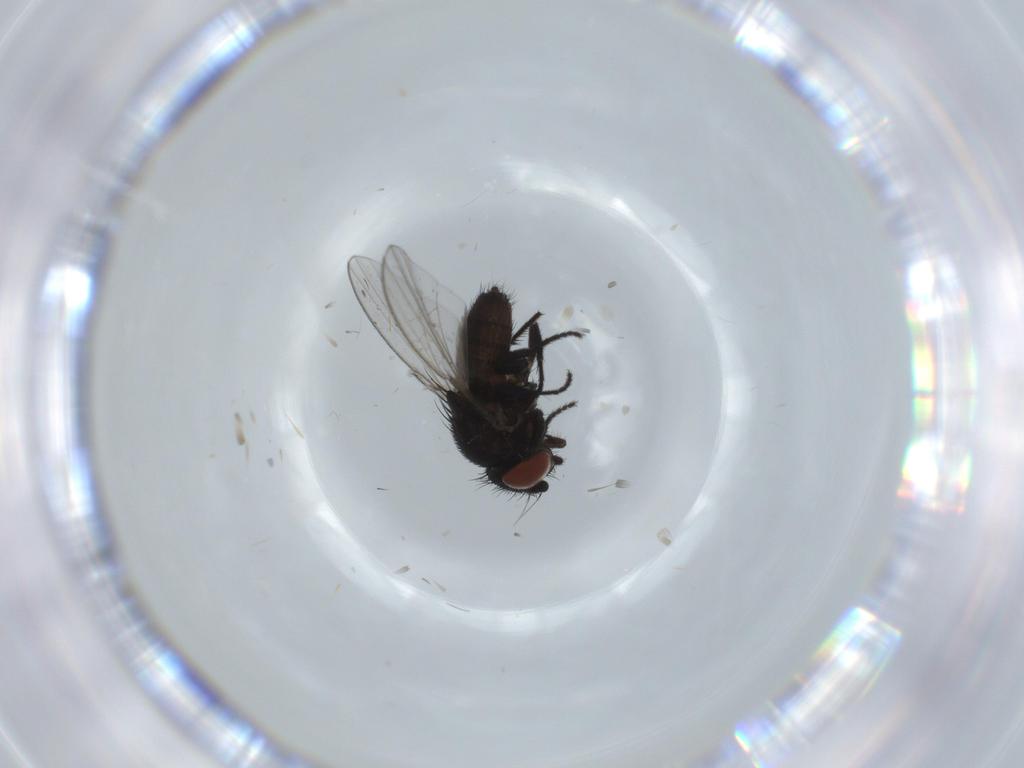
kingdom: Animalia
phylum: Arthropoda
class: Insecta
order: Diptera
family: Milichiidae
